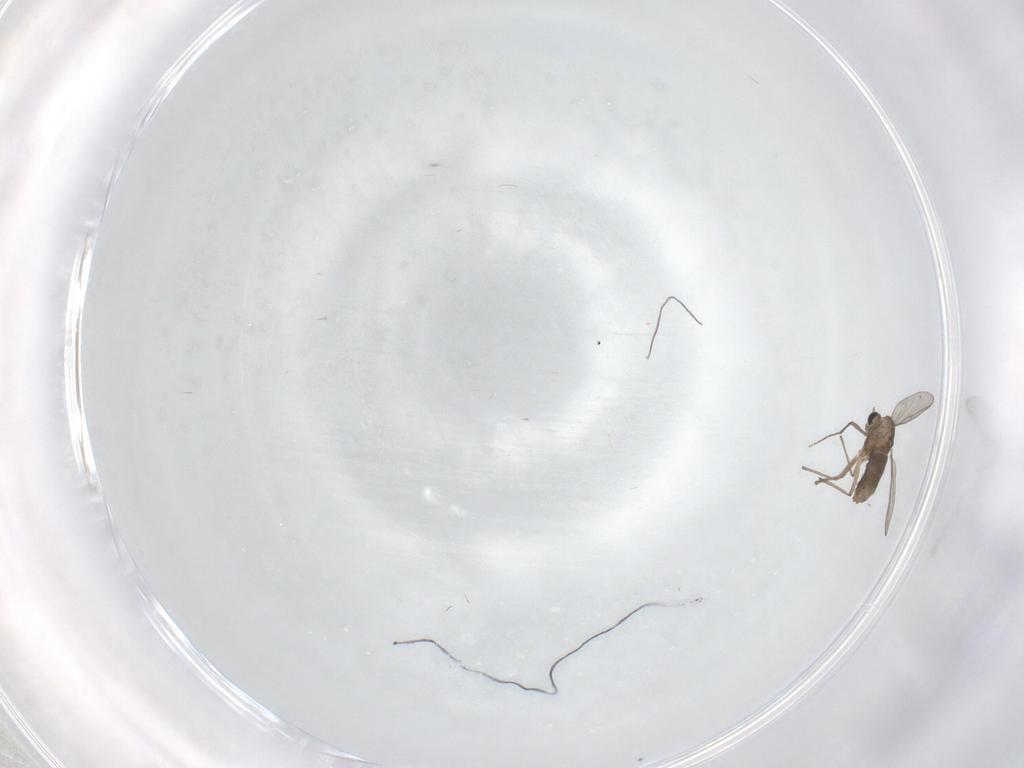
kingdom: Animalia
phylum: Arthropoda
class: Insecta
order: Diptera
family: Chironomidae
